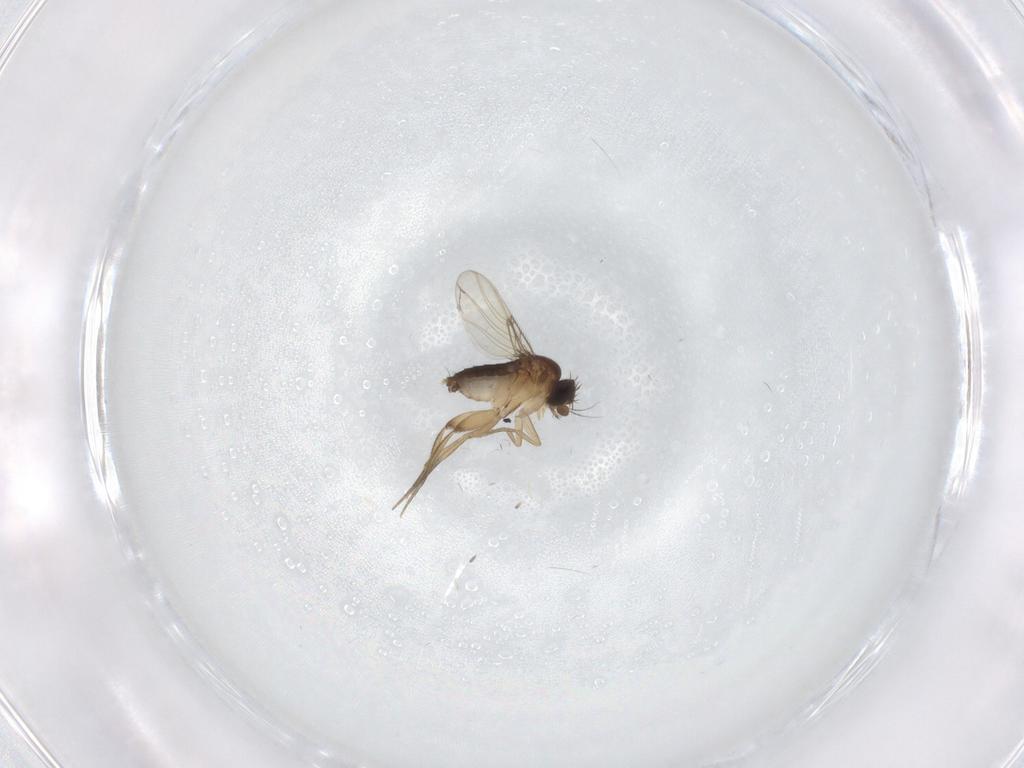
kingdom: Animalia
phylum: Arthropoda
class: Insecta
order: Diptera
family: Phoridae
